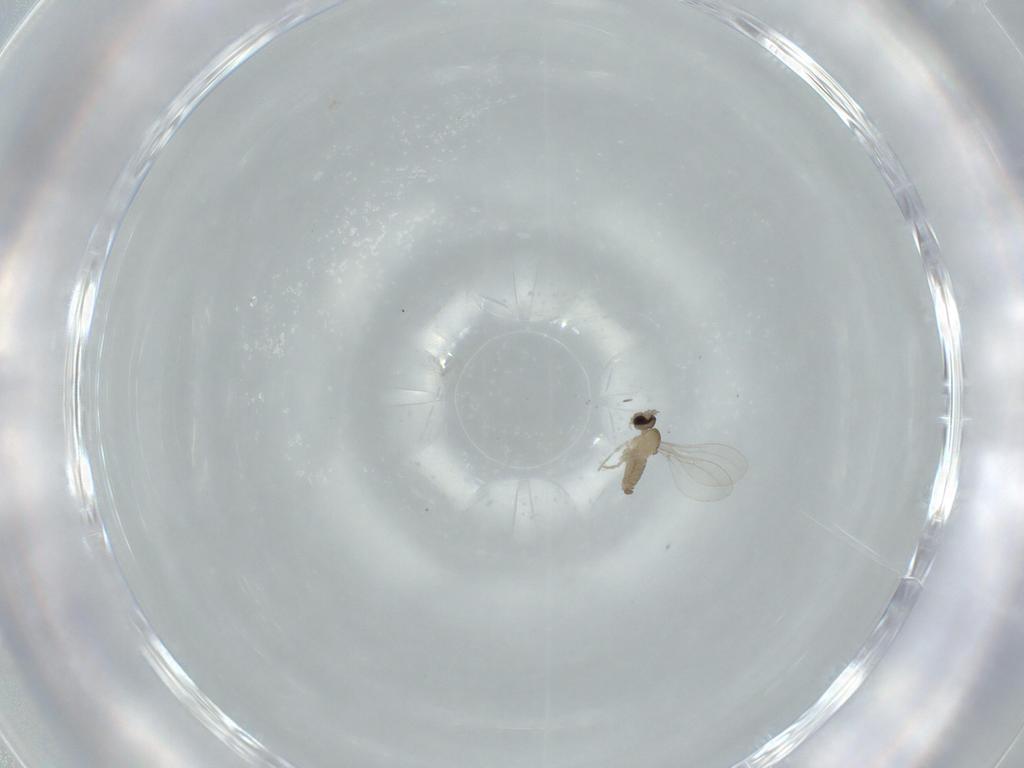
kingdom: Animalia
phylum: Arthropoda
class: Insecta
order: Diptera
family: Cecidomyiidae
